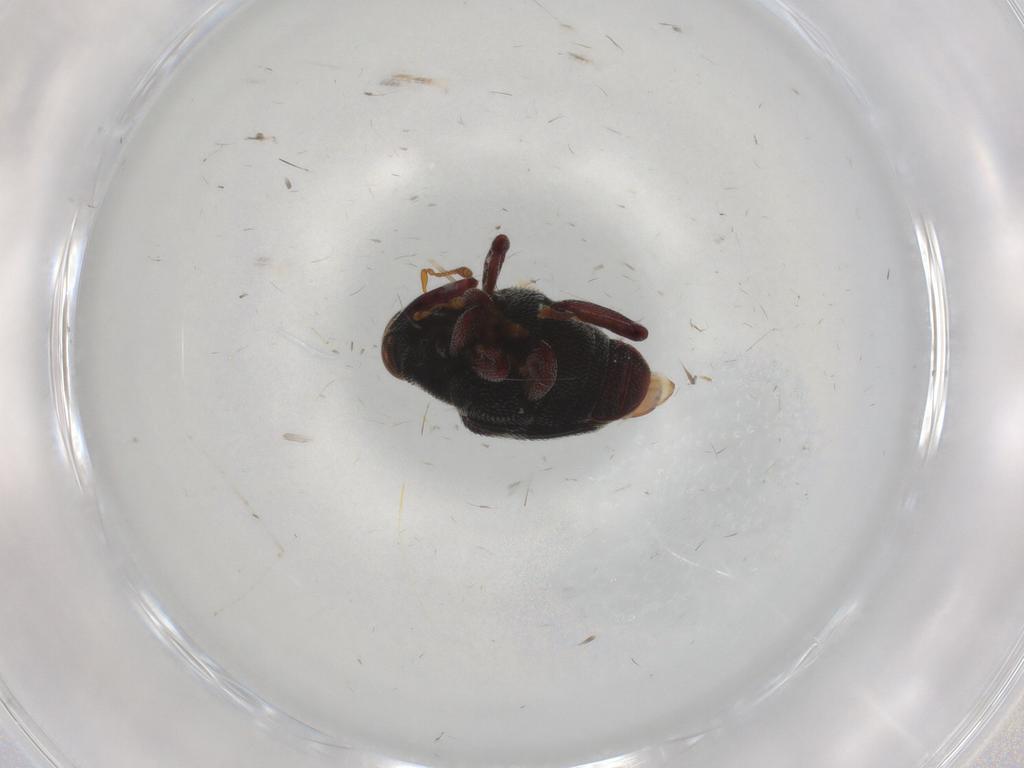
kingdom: Animalia
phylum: Arthropoda
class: Insecta
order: Coleoptera
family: Curculionidae
